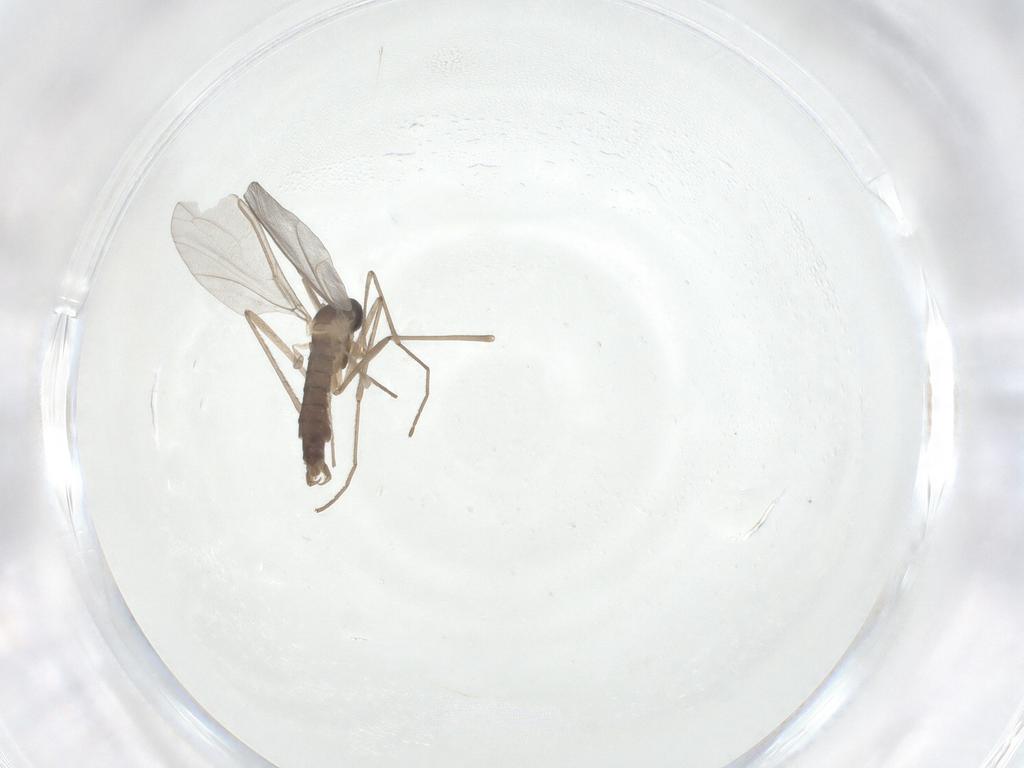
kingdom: Animalia
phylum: Arthropoda
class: Insecta
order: Diptera
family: Cecidomyiidae
